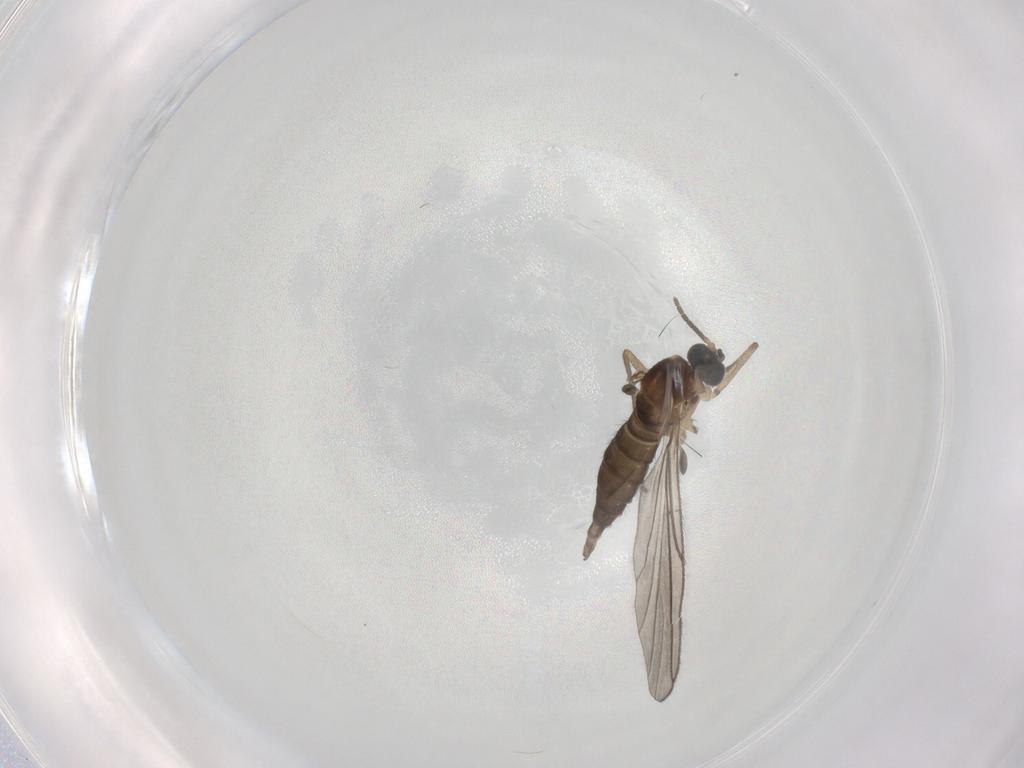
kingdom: Animalia
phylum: Arthropoda
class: Insecta
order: Diptera
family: Sciaridae
